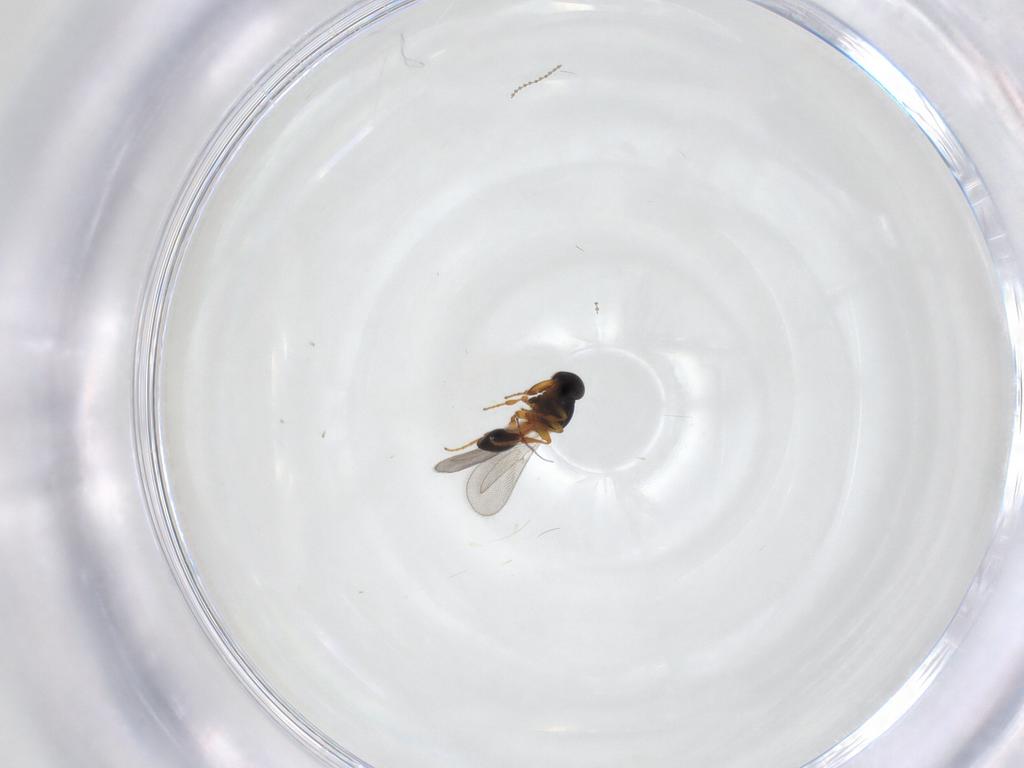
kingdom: Animalia
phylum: Arthropoda
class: Insecta
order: Hymenoptera
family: Platygastridae
